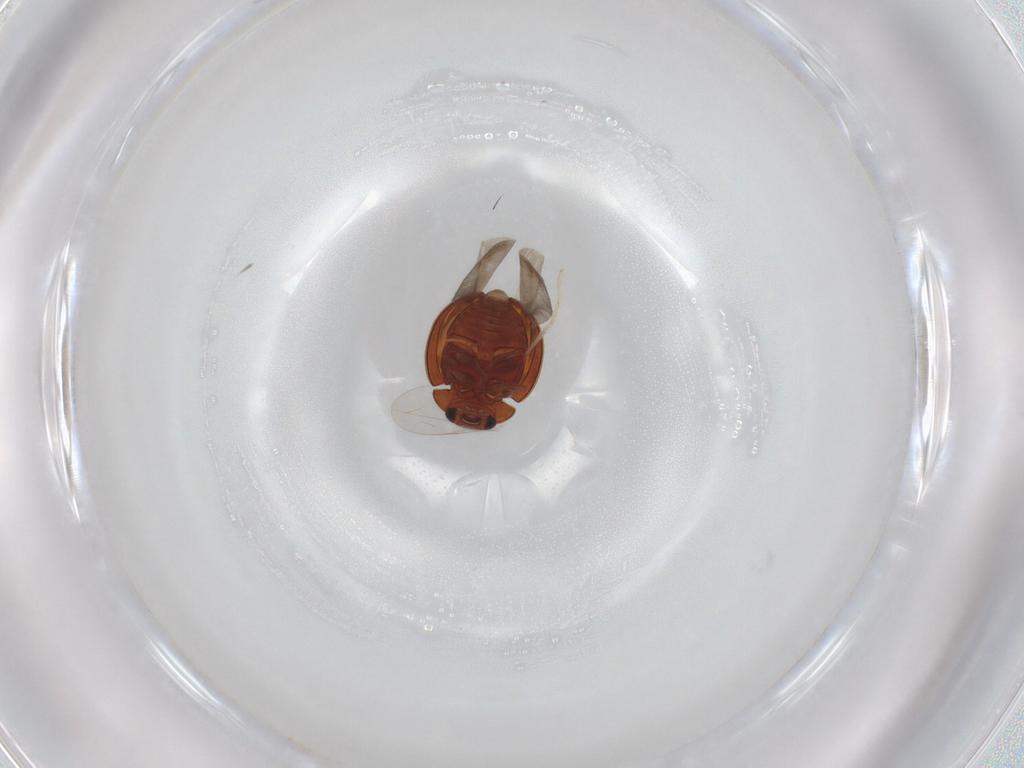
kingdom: Animalia
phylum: Arthropoda
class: Insecta
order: Coleoptera
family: Anamorphidae
